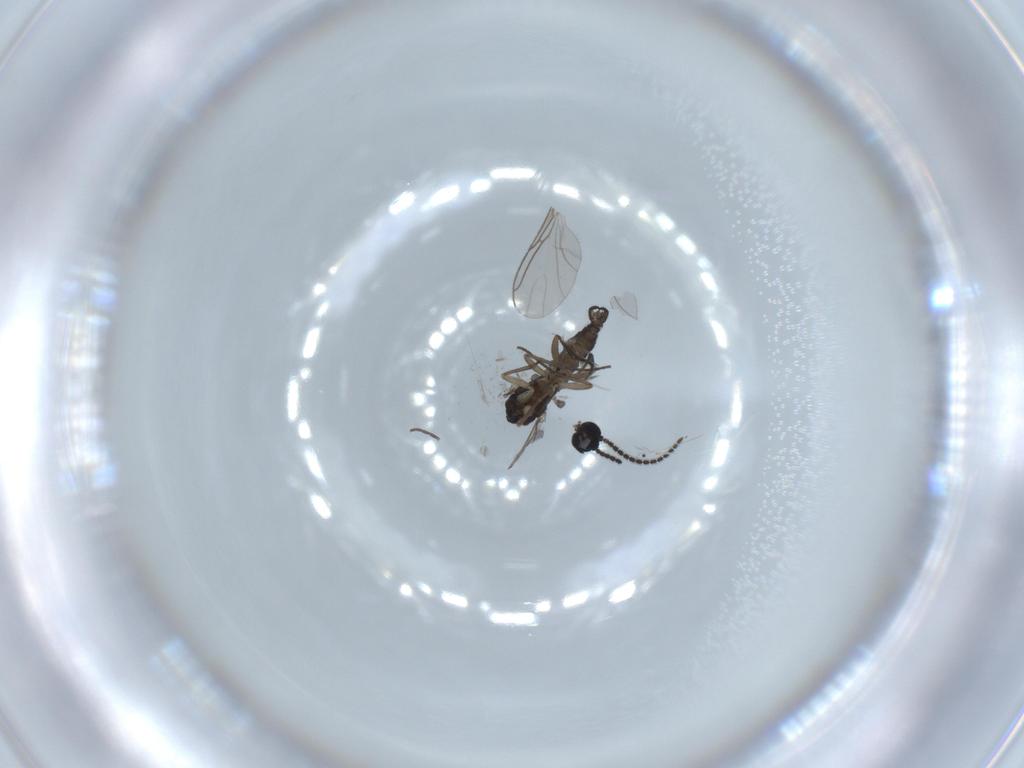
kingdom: Animalia
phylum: Arthropoda
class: Insecta
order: Diptera
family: Sciaridae
